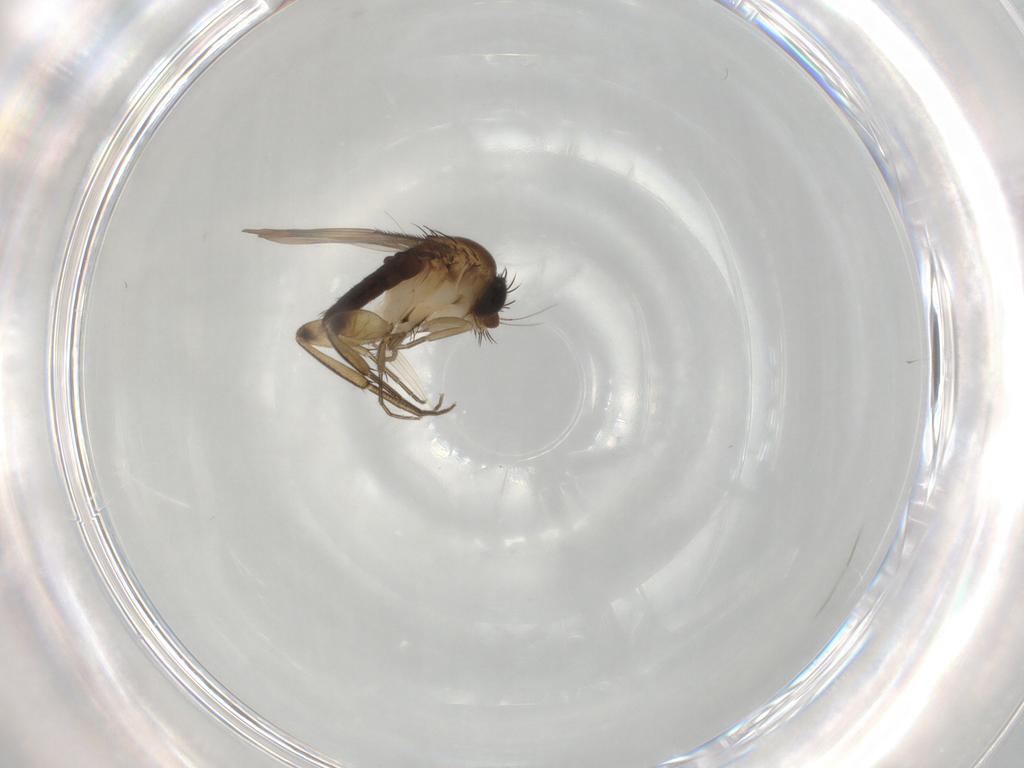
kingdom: Animalia
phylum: Arthropoda
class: Insecta
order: Diptera
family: Phoridae
